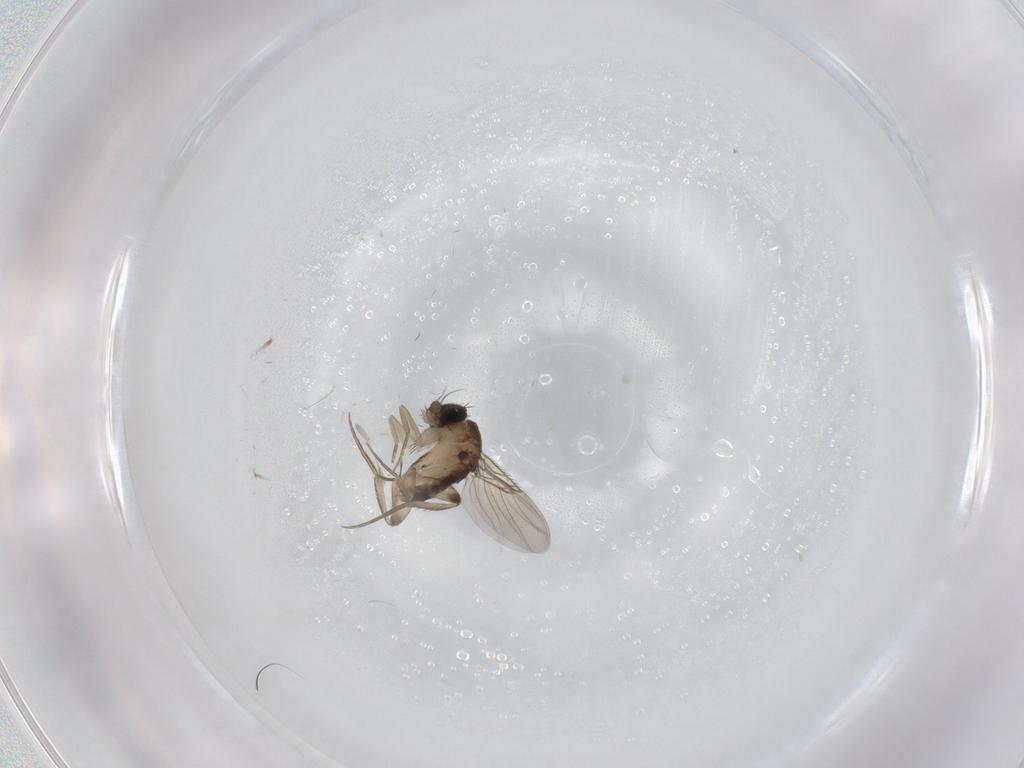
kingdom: Animalia
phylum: Arthropoda
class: Insecta
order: Diptera
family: Phoridae
